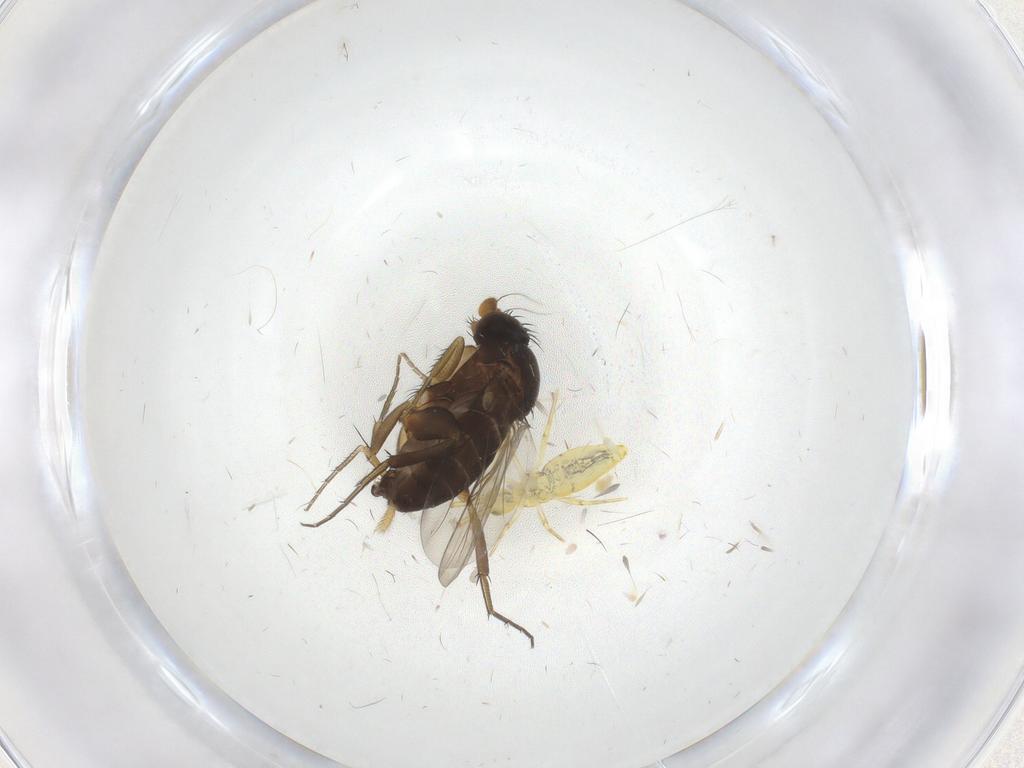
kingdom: Animalia
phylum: Arthropoda
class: Insecta
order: Diptera
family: Phoridae
